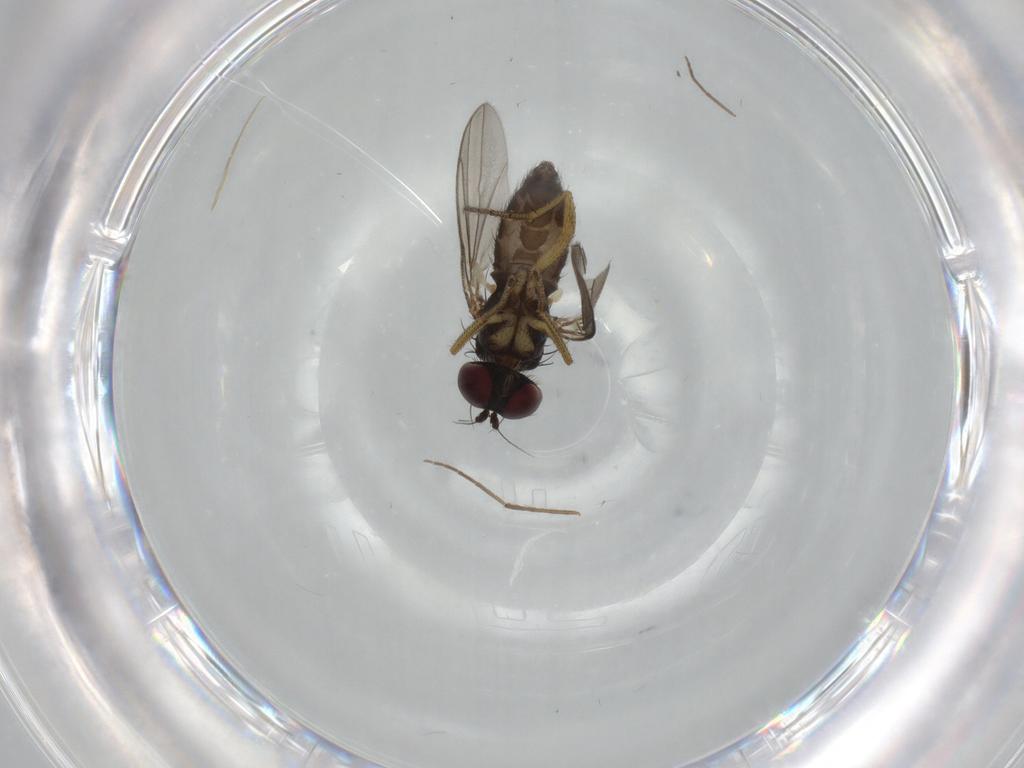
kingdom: Animalia
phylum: Arthropoda
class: Insecta
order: Diptera
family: Dolichopodidae
